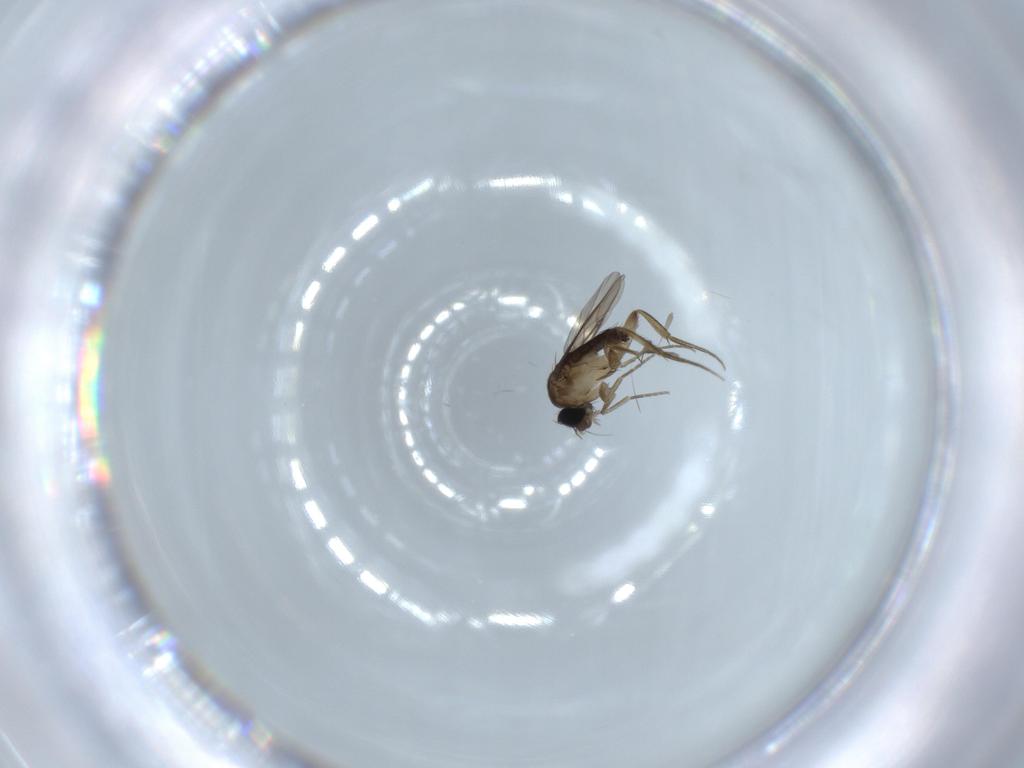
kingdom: Animalia
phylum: Arthropoda
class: Insecta
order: Diptera
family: Phoridae
